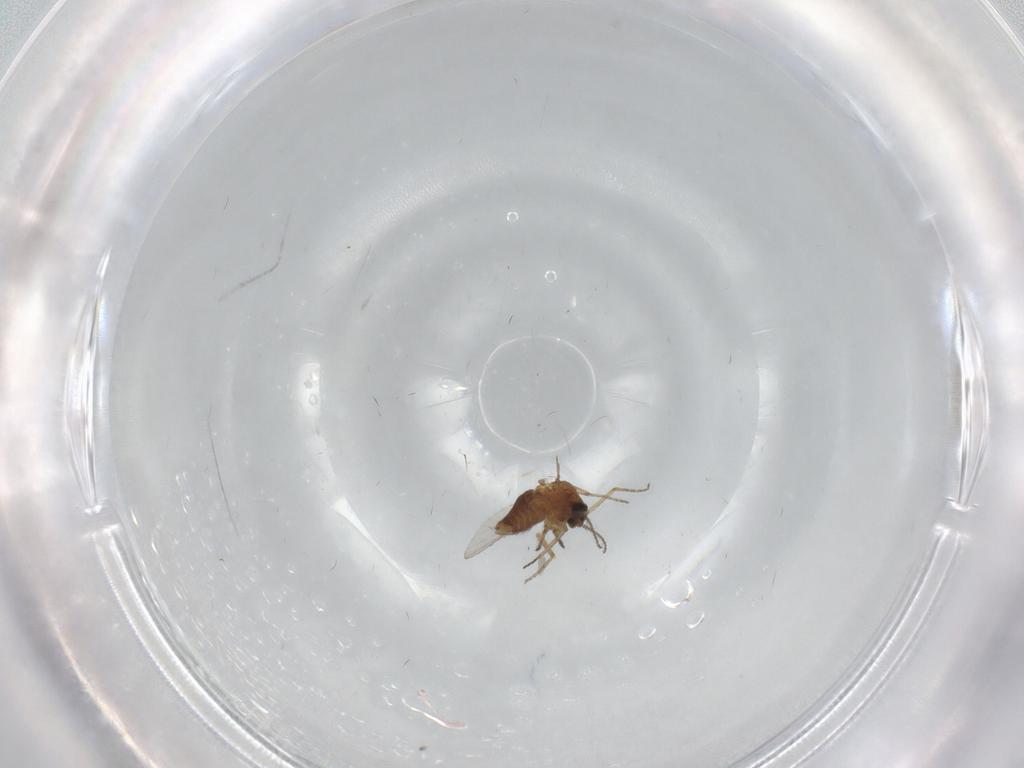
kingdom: Animalia
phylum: Arthropoda
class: Insecta
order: Diptera
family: Ceratopogonidae
